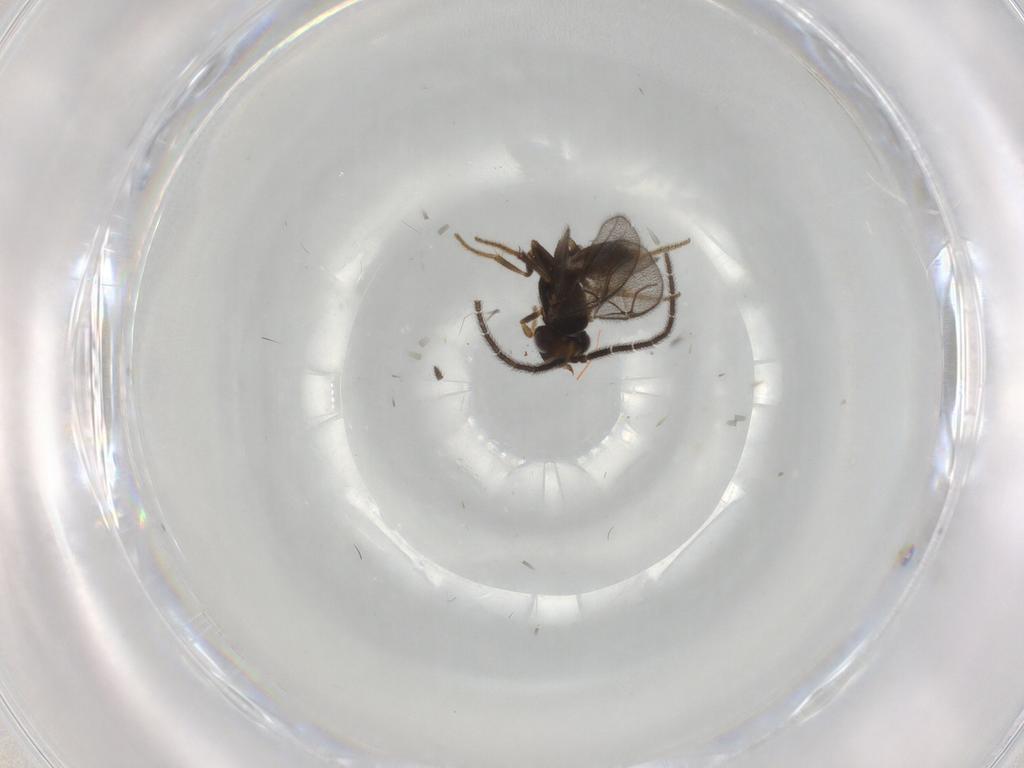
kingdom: Animalia
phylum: Arthropoda
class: Insecta
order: Hymenoptera
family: Dryinidae
